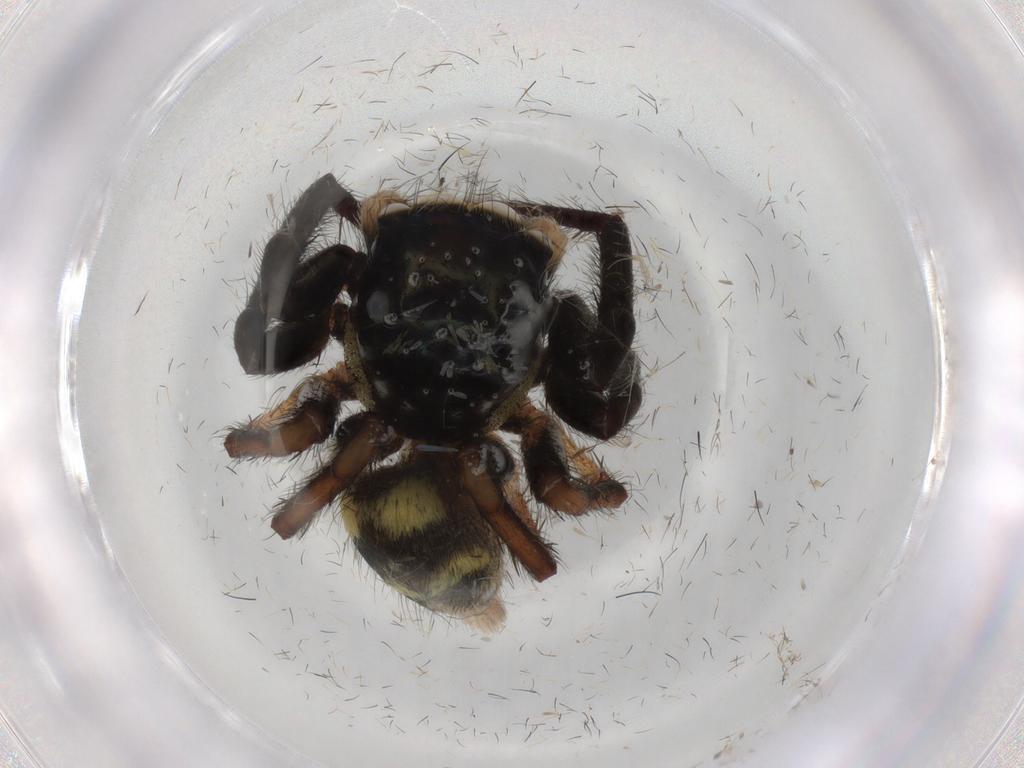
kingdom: Animalia
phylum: Arthropoda
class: Arachnida
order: Araneae
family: Salticidae
